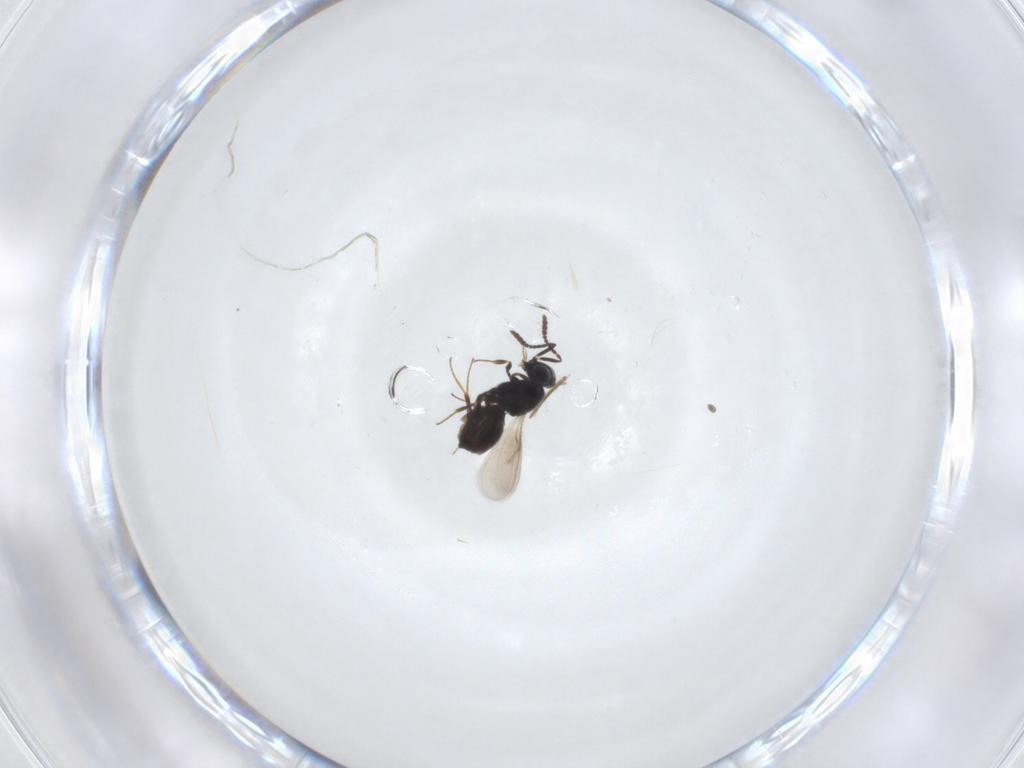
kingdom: Animalia
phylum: Arthropoda
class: Insecta
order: Hymenoptera
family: Scelionidae
